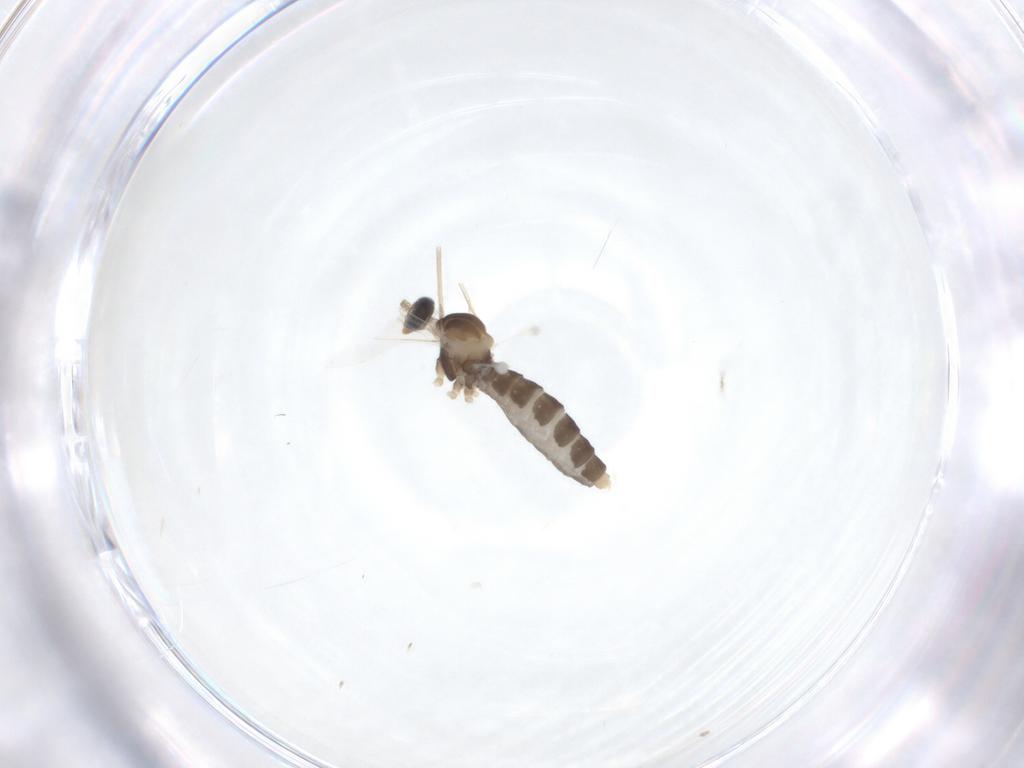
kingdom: Animalia
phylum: Arthropoda
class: Insecta
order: Diptera
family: Cecidomyiidae
